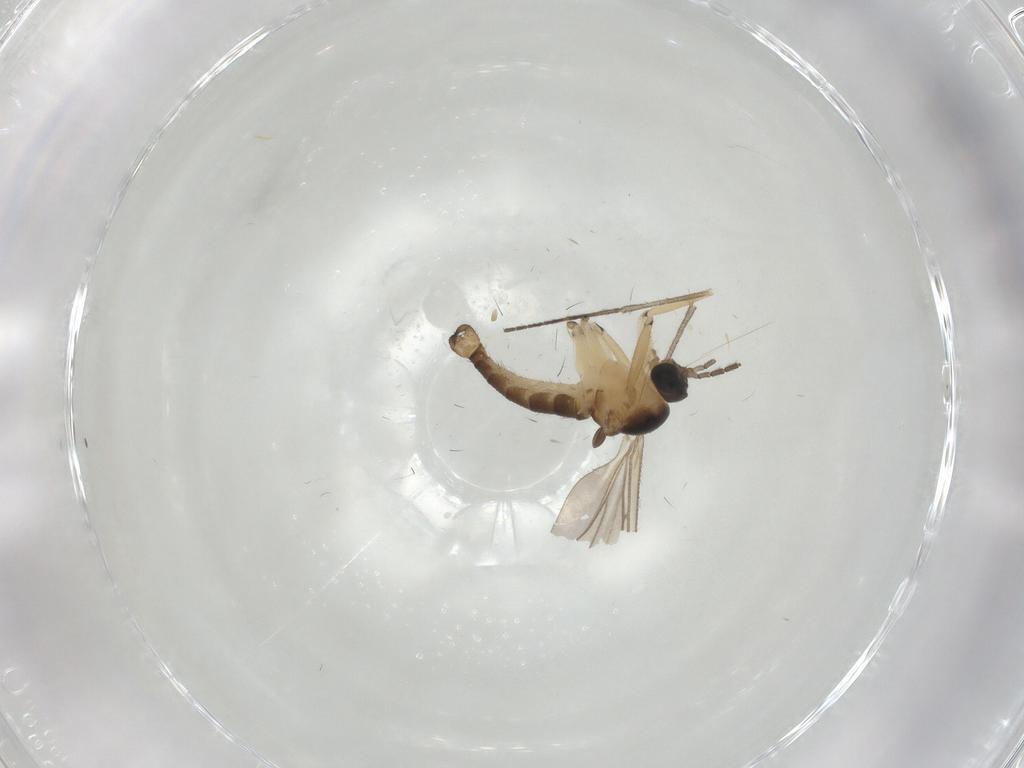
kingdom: Animalia
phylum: Arthropoda
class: Insecta
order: Diptera
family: Sciaridae
